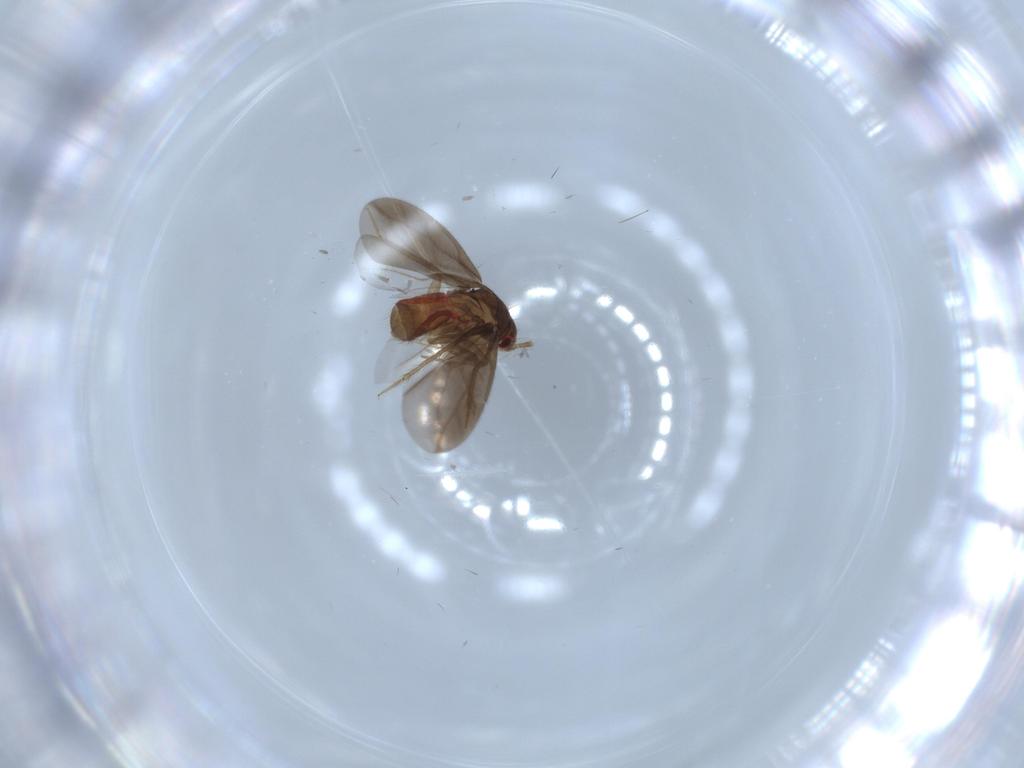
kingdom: Animalia
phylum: Arthropoda
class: Insecta
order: Hemiptera
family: Ceratocombidae
